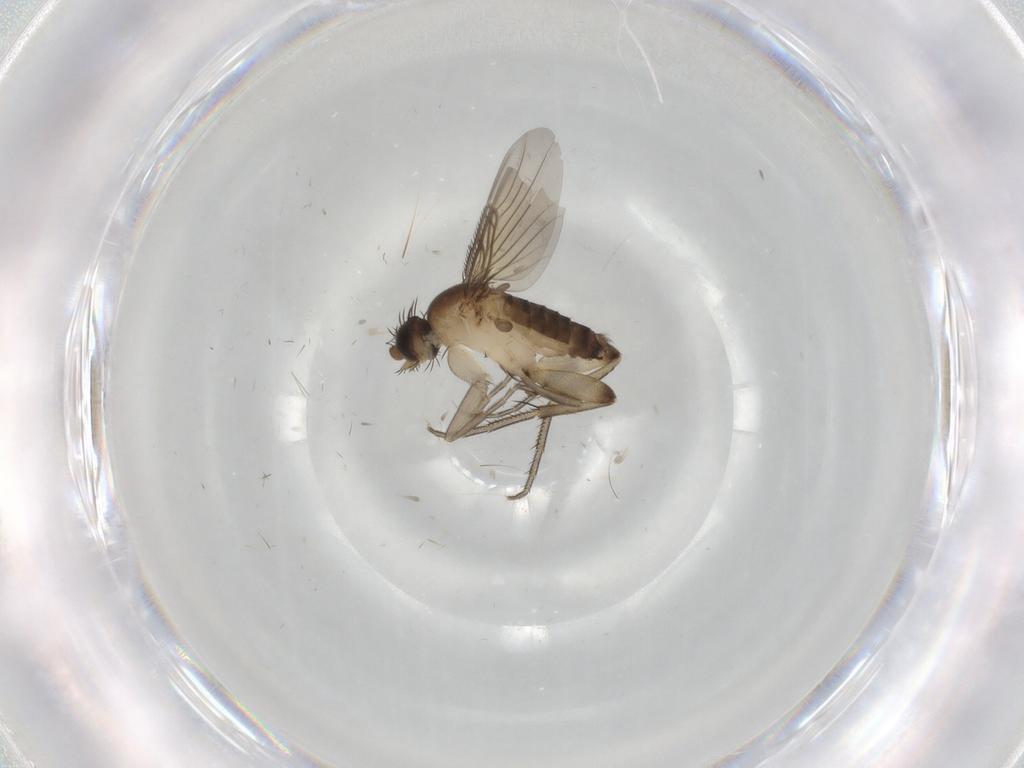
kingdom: Animalia
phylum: Arthropoda
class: Insecta
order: Diptera
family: Phoridae
